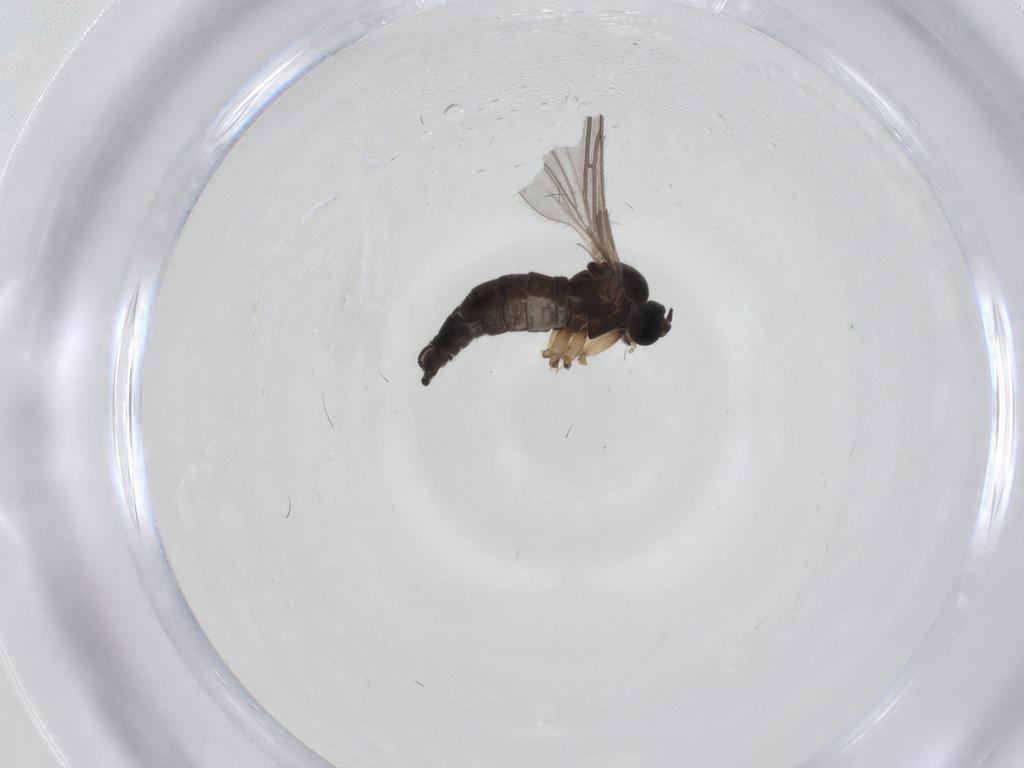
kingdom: Animalia
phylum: Arthropoda
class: Insecta
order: Diptera
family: Sciaridae
